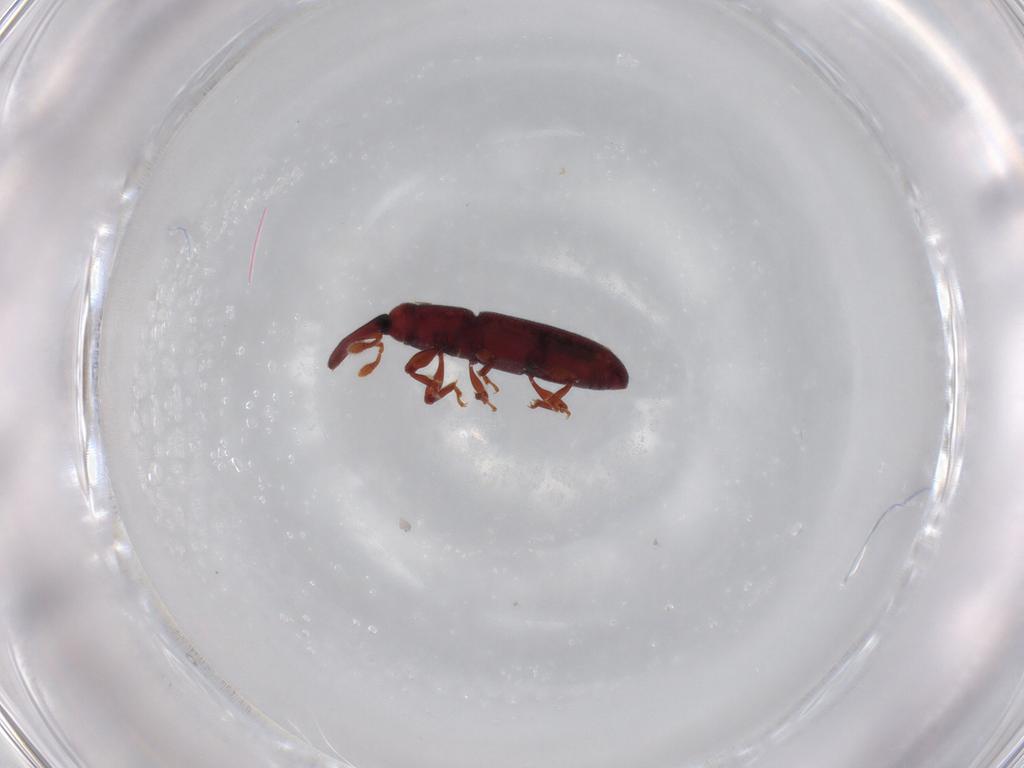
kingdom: Animalia
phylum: Arthropoda
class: Insecta
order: Coleoptera
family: Curculionidae
